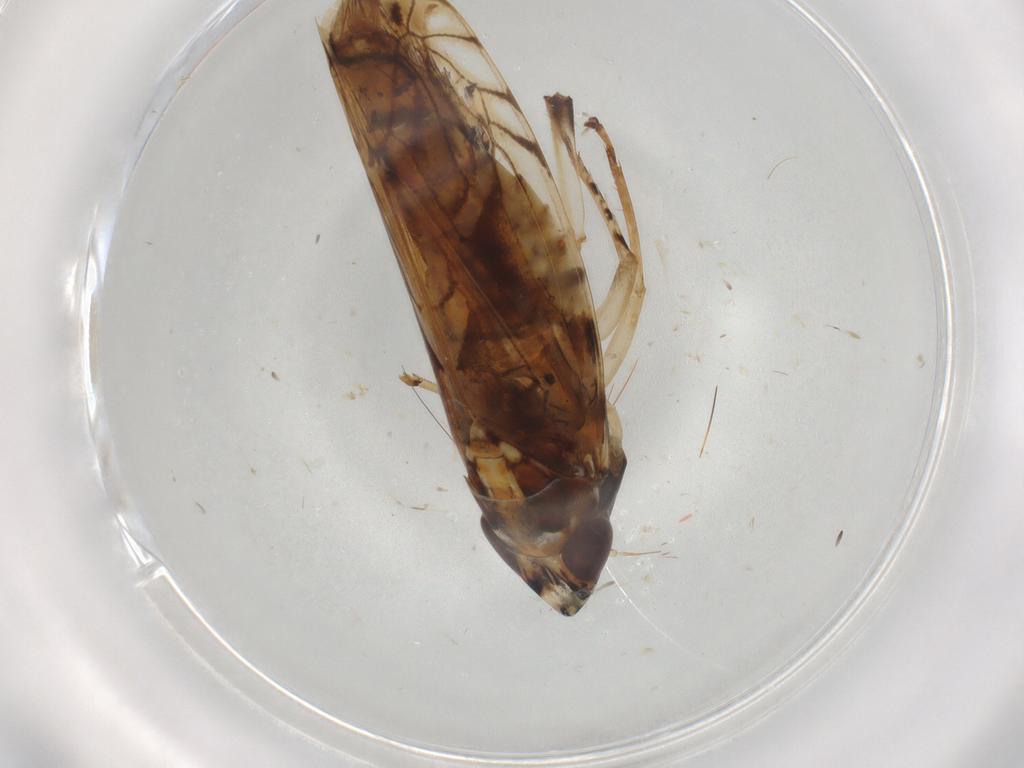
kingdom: Animalia
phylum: Arthropoda
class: Insecta
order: Hemiptera
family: Cicadellidae
